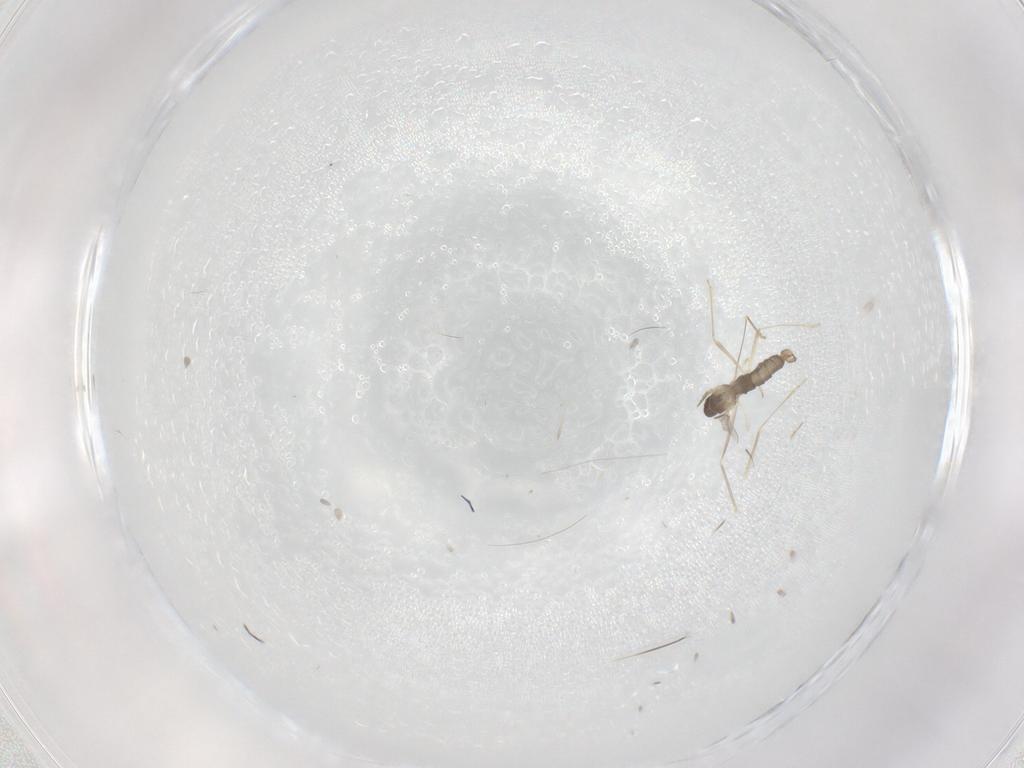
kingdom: Animalia
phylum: Arthropoda
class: Insecta
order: Diptera
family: Cecidomyiidae
